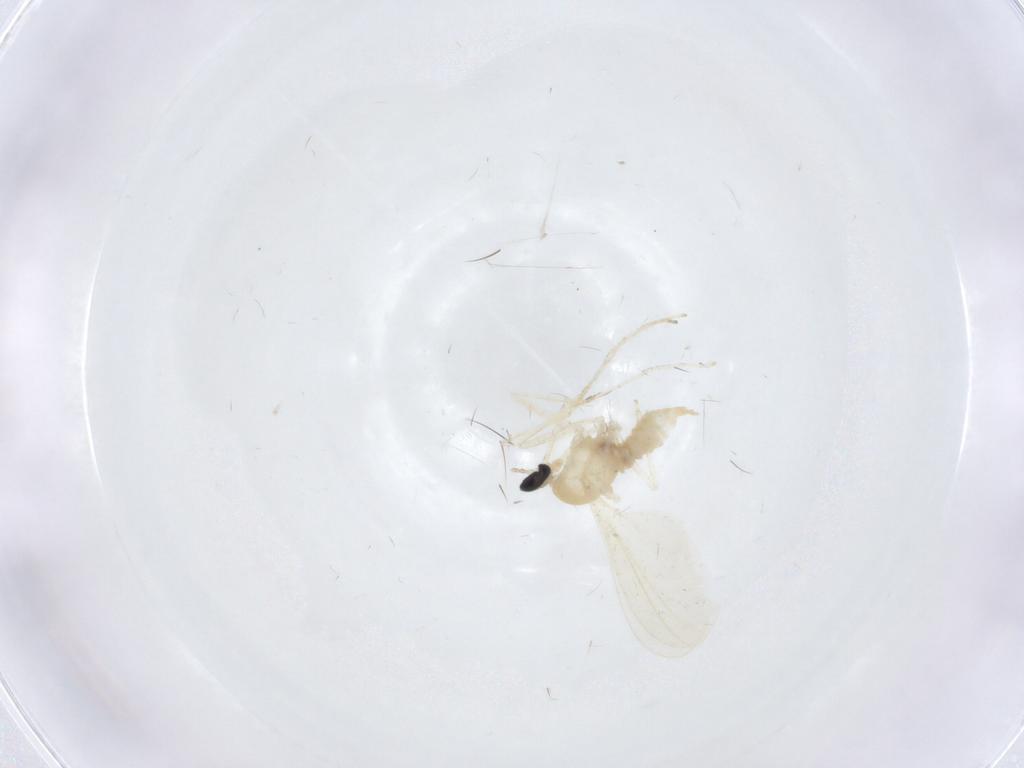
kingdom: Animalia
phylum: Arthropoda
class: Insecta
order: Diptera
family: Cecidomyiidae
